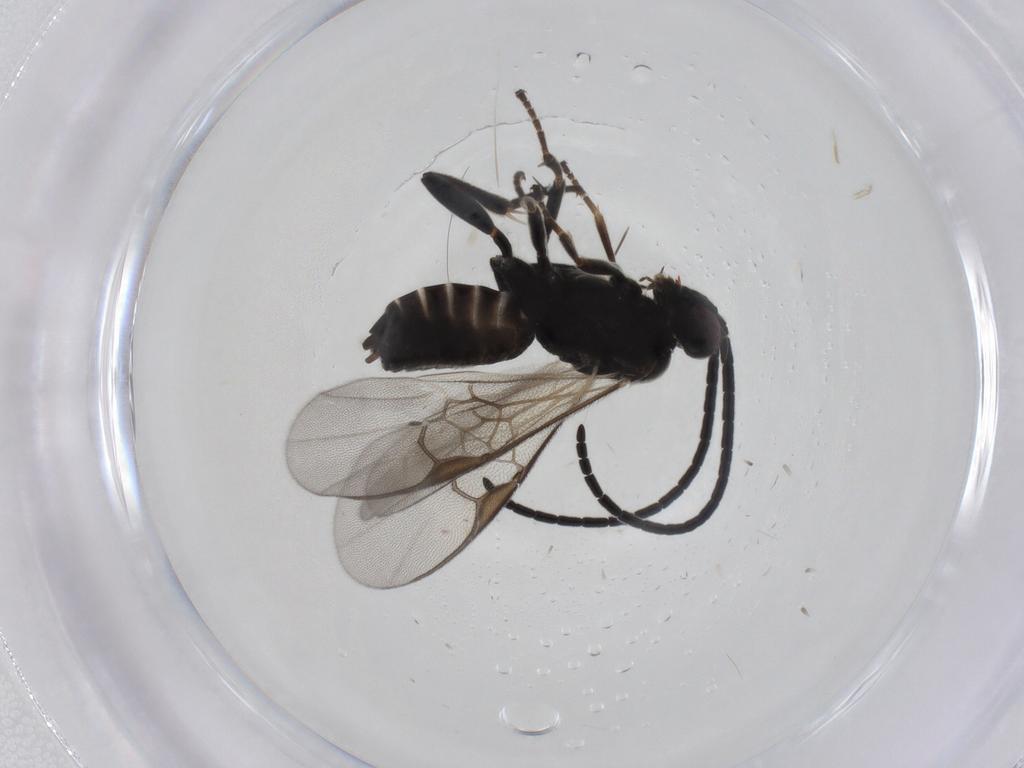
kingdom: Animalia
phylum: Arthropoda
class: Insecta
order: Hymenoptera
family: Braconidae
